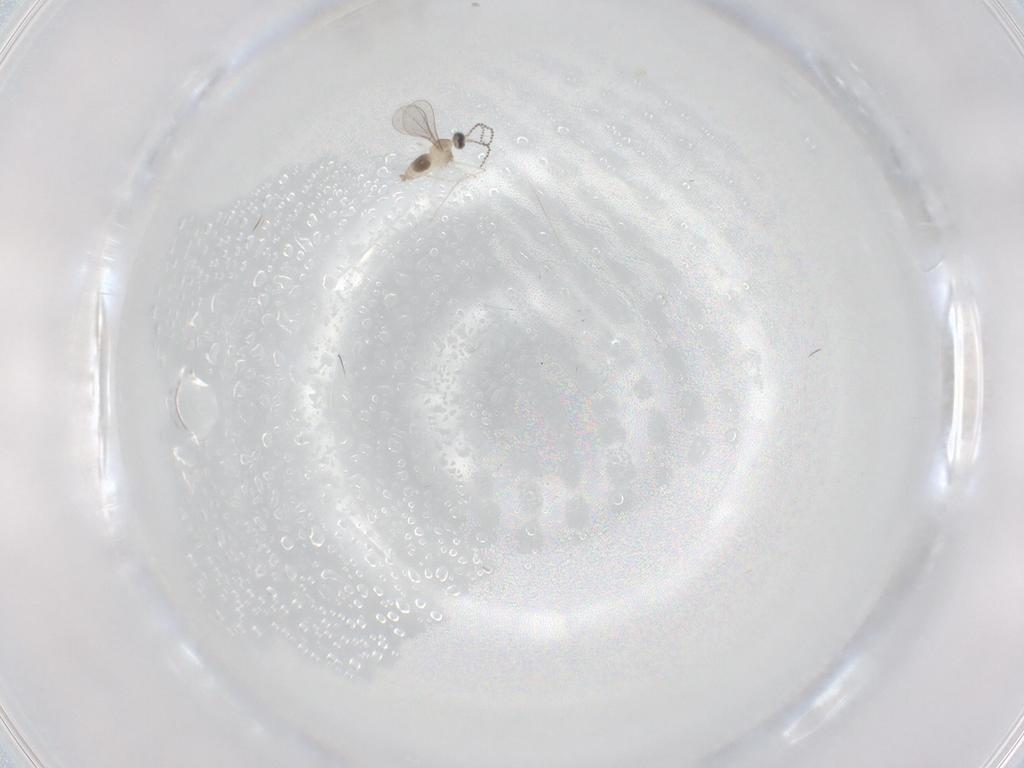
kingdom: Animalia
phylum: Arthropoda
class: Insecta
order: Diptera
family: Cecidomyiidae
